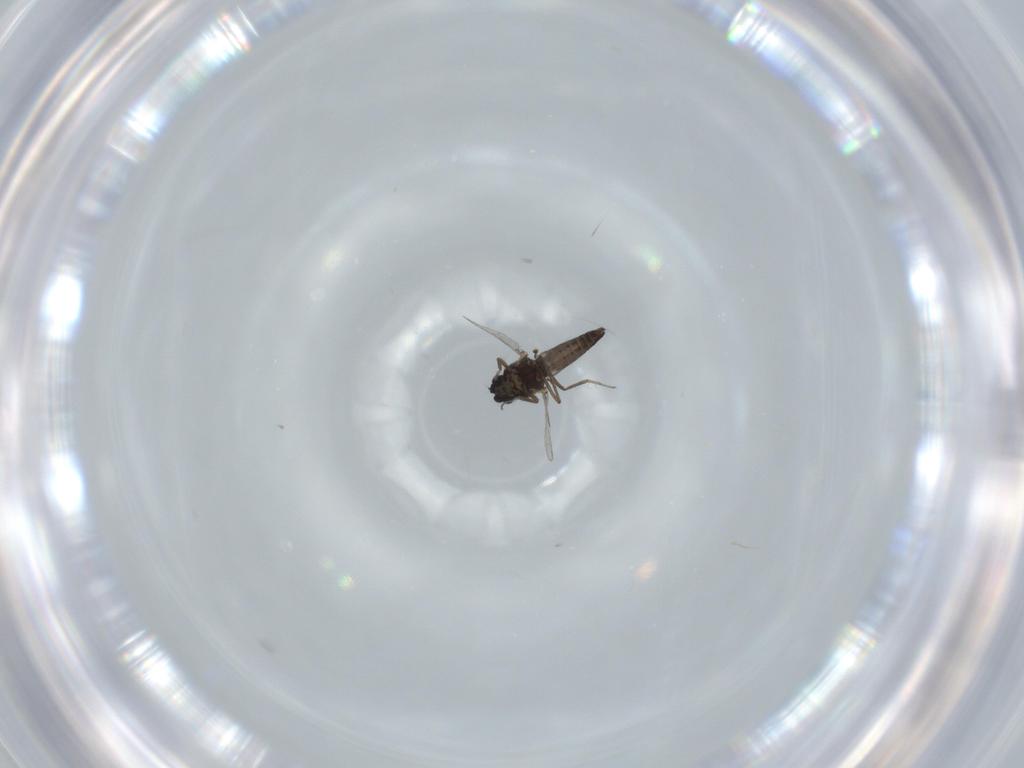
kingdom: Animalia
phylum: Arthropoda
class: Insecta
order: Diptera
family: Ceratopogonidae
